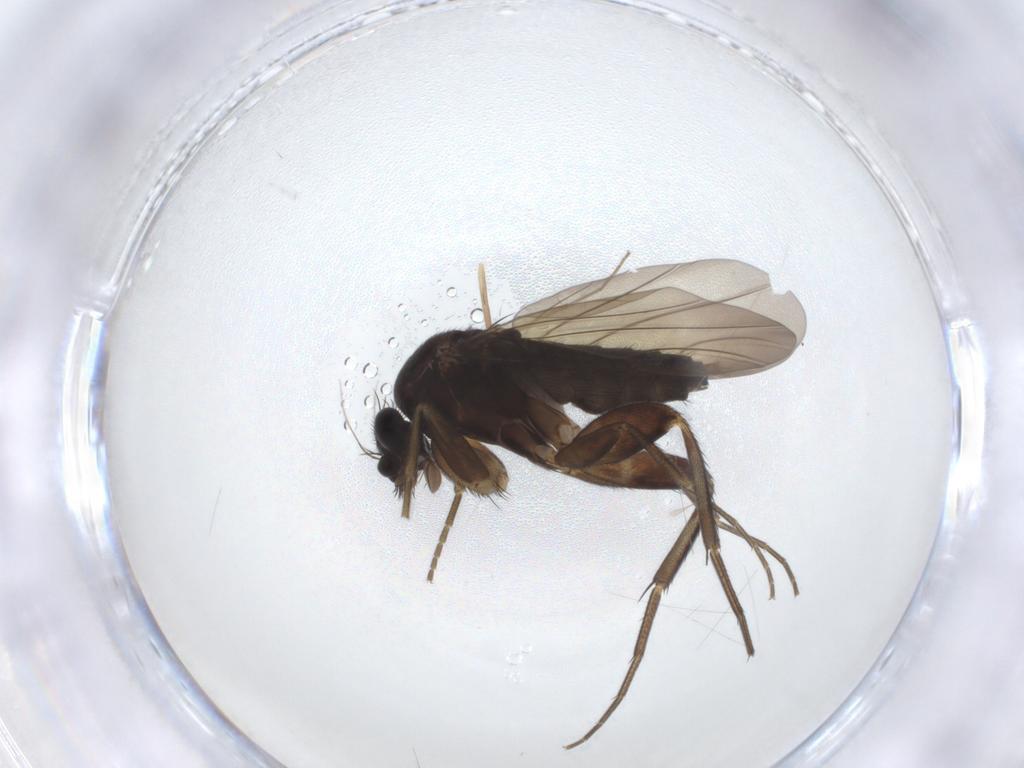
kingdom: Animalia
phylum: Arthropoda
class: Insecta
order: Diptera
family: Phoridae
